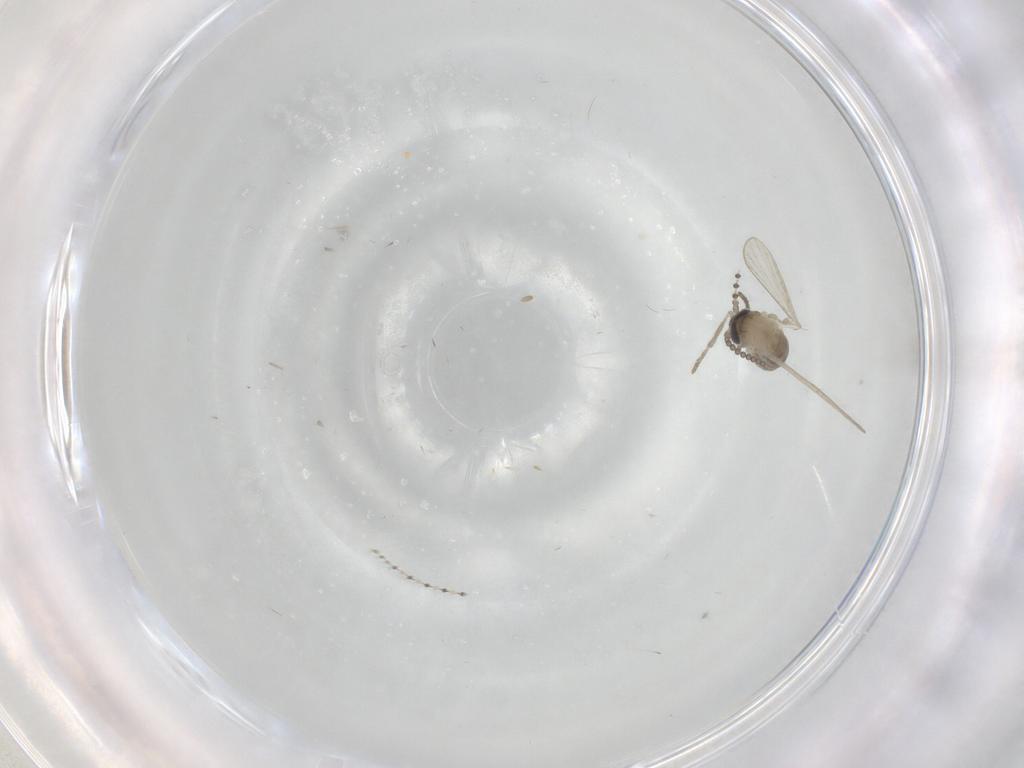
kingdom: Animalia
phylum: Arthropoda
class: Insecta
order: Diptera
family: Psychodidae
